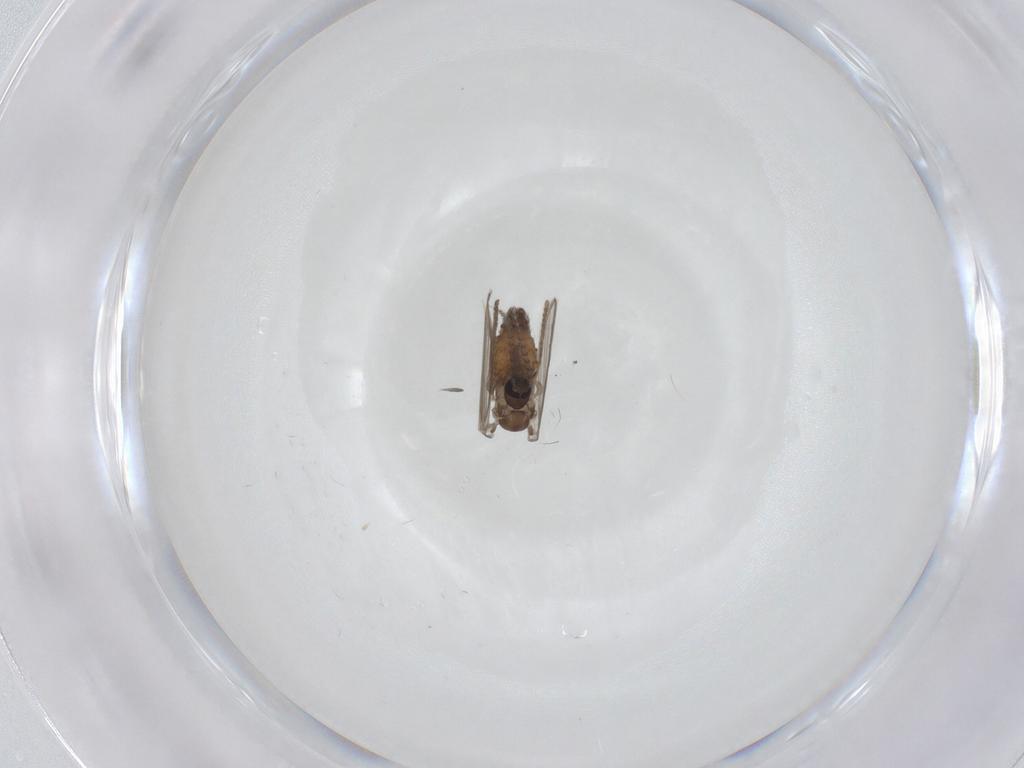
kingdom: Animalia
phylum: Arthropoda
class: Insecta
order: Diptera
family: Psychodidae
